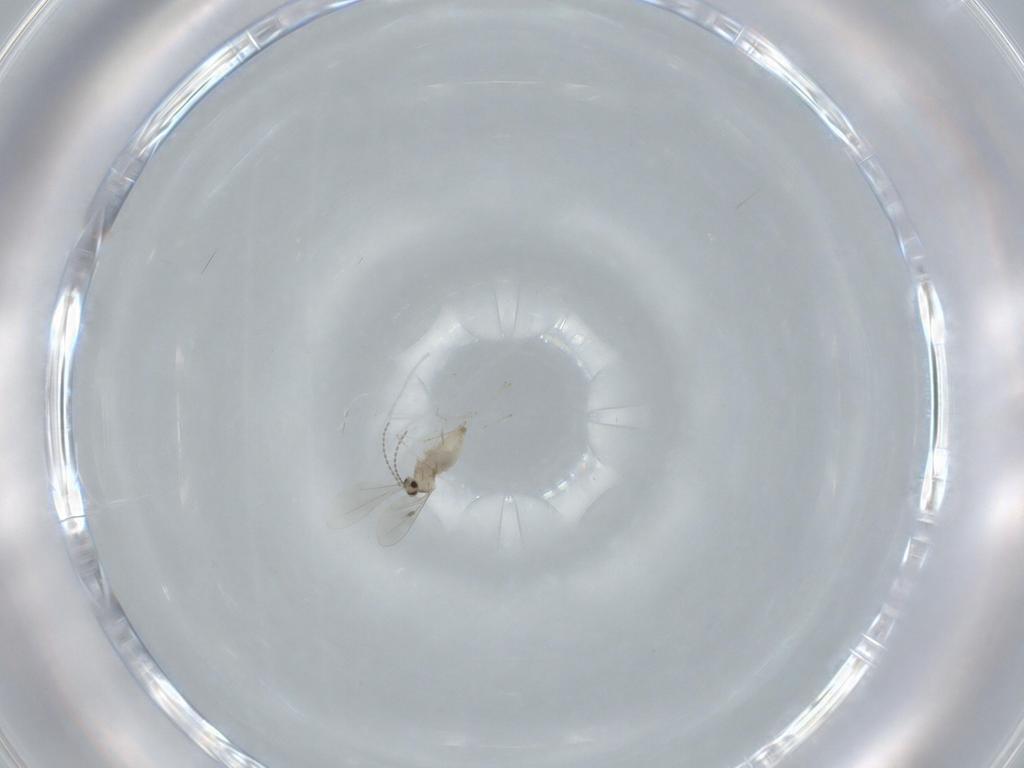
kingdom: Animalia
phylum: Arthropoda
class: Insecta
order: Diptera
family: Cecidomyiidae
